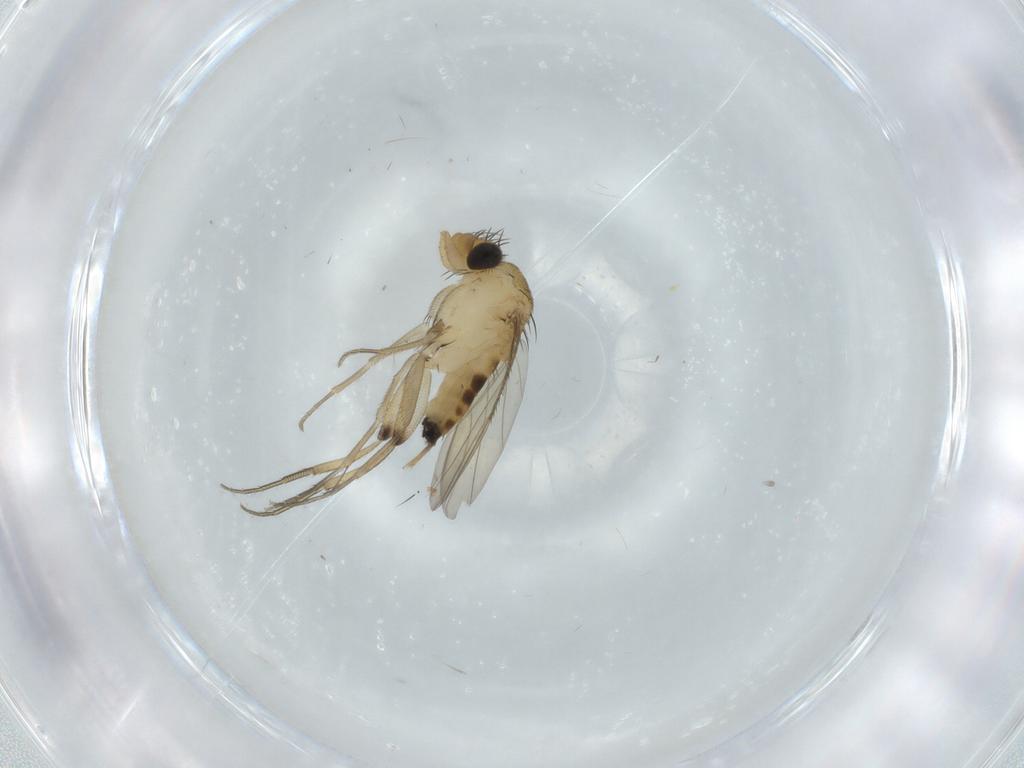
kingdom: Animalia
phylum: Arthropoda
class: Insecta
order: Diptera
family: Phoridae
